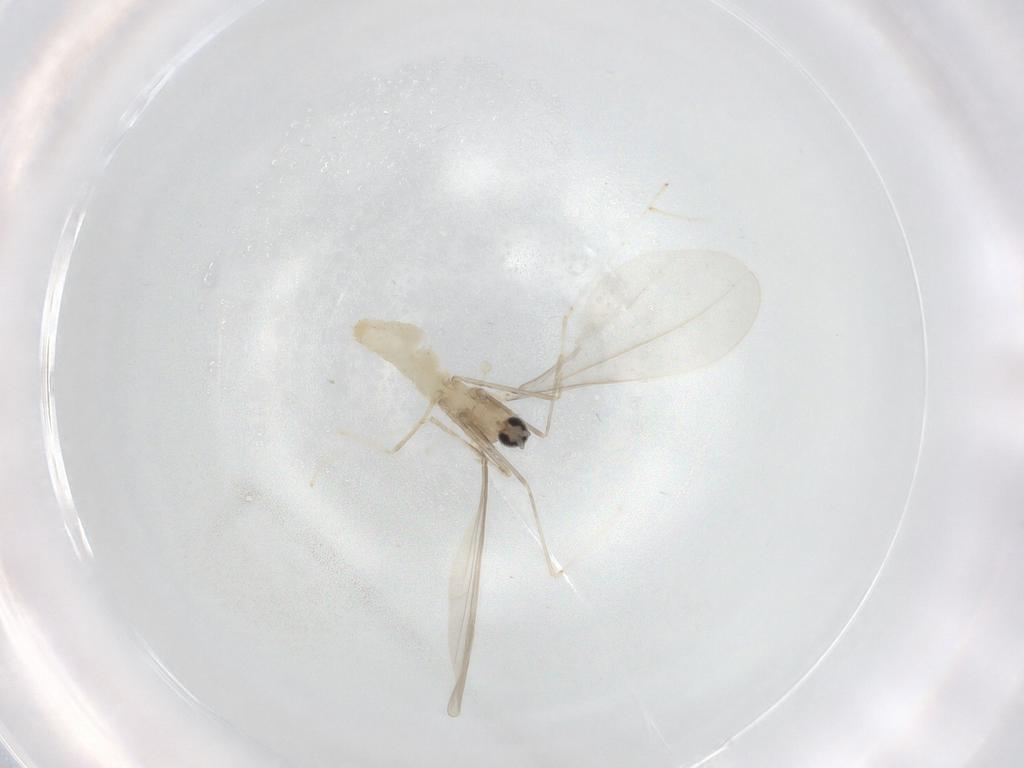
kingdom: Animalia
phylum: Arthropoda
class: Insecta
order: Diptera
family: Cecidomyiidae
